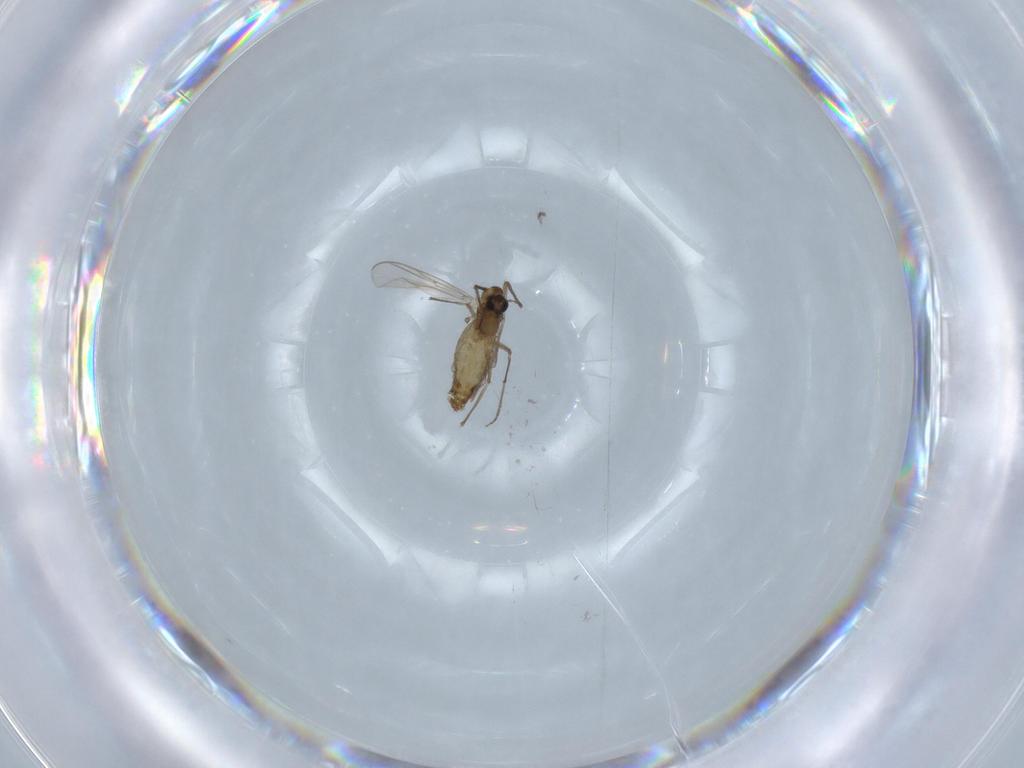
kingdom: Animalia
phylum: Arthropoda
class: Insecta
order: Diptera
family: Chironomidae
